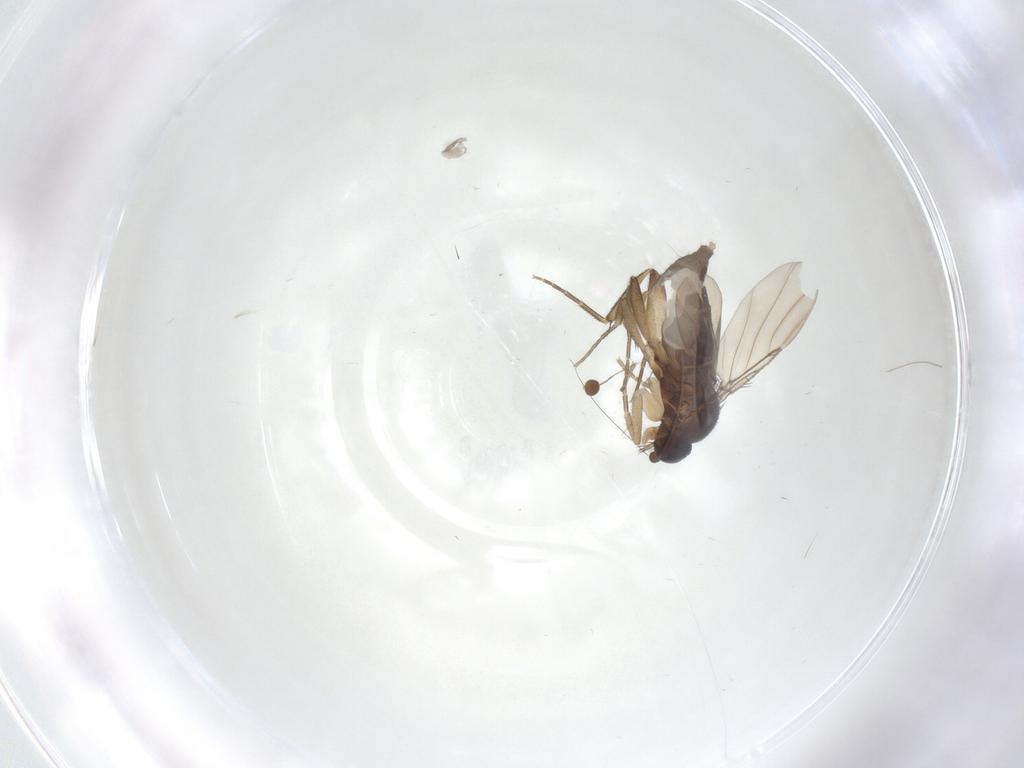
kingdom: Animalia
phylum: Arthropoda
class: Insecta
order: Diptera
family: Phoridae
